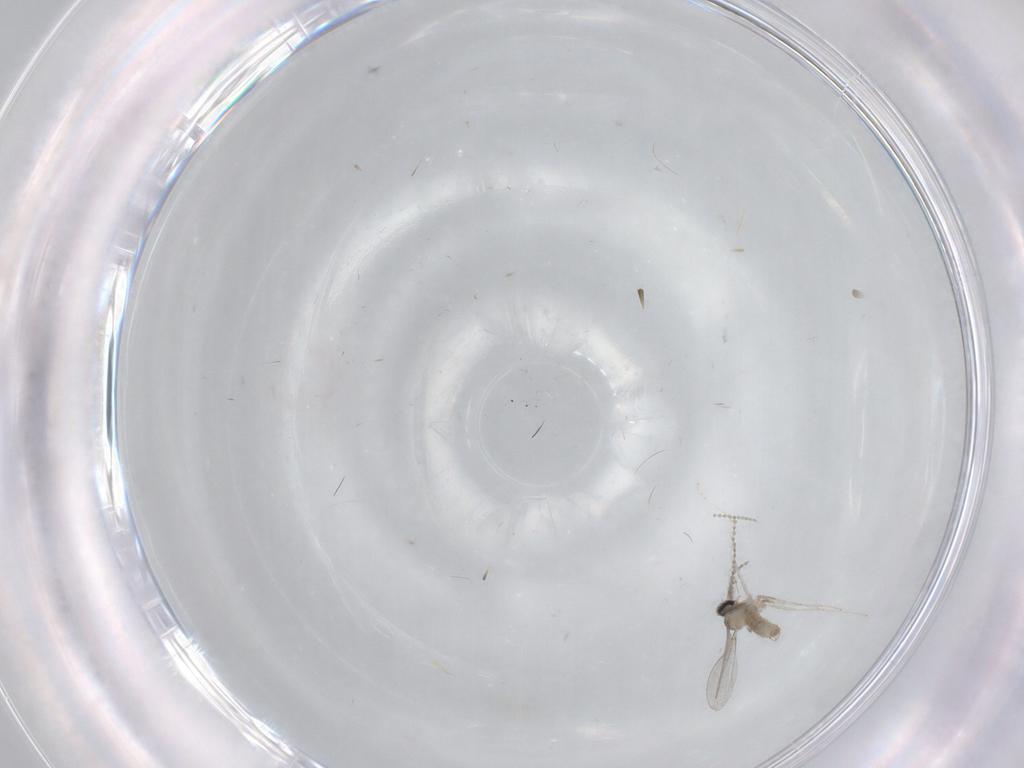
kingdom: Animalia
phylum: Arthropoda
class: Insecta
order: Diptera
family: Cecidomyiidae
